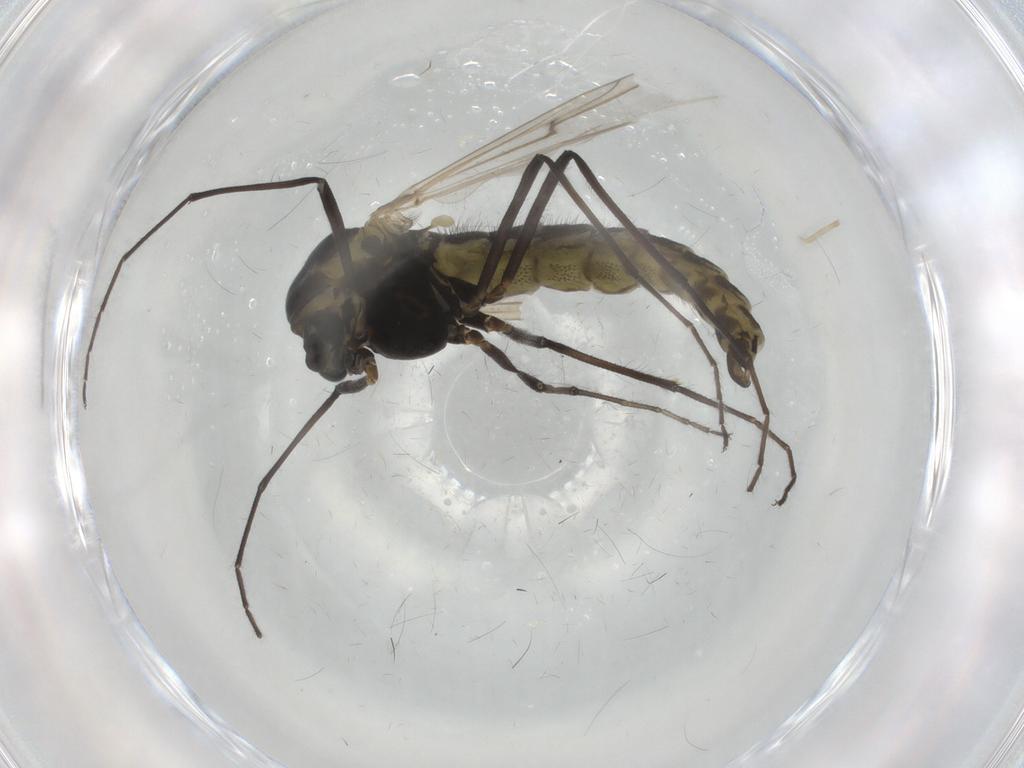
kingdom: Animalia
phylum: Arthropoda
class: Insecta
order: Diptera
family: Cecidomyiidae
